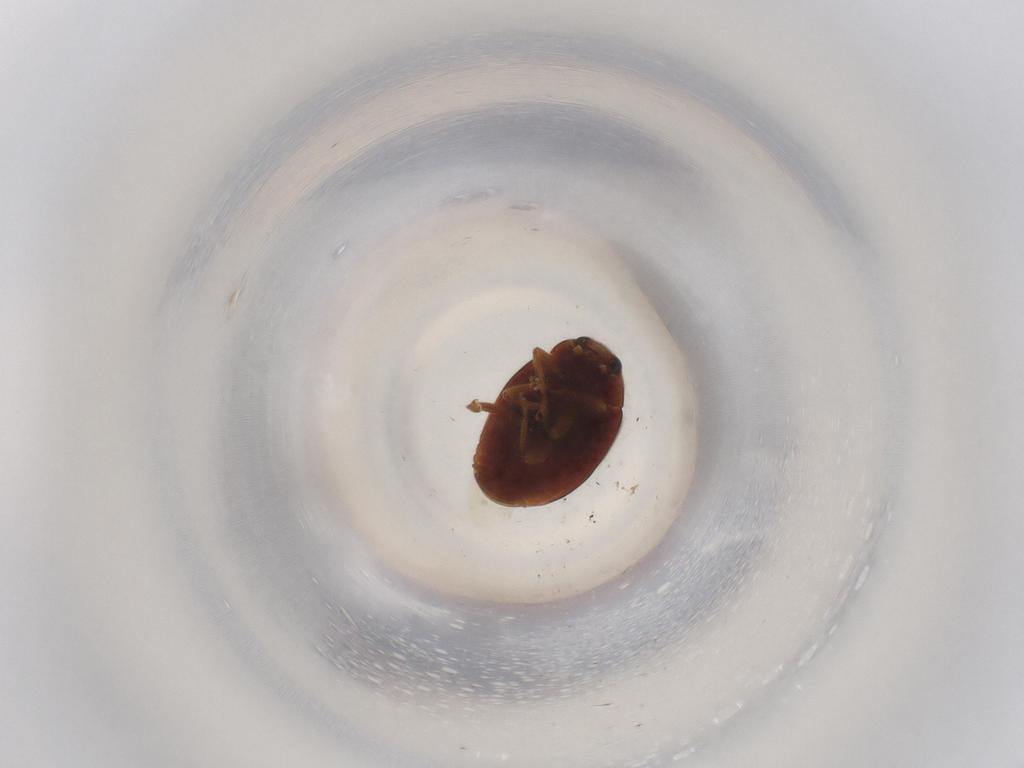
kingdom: Animalia
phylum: Arthropoda
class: Insecta
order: Coleoptera
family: Coccinellidae
